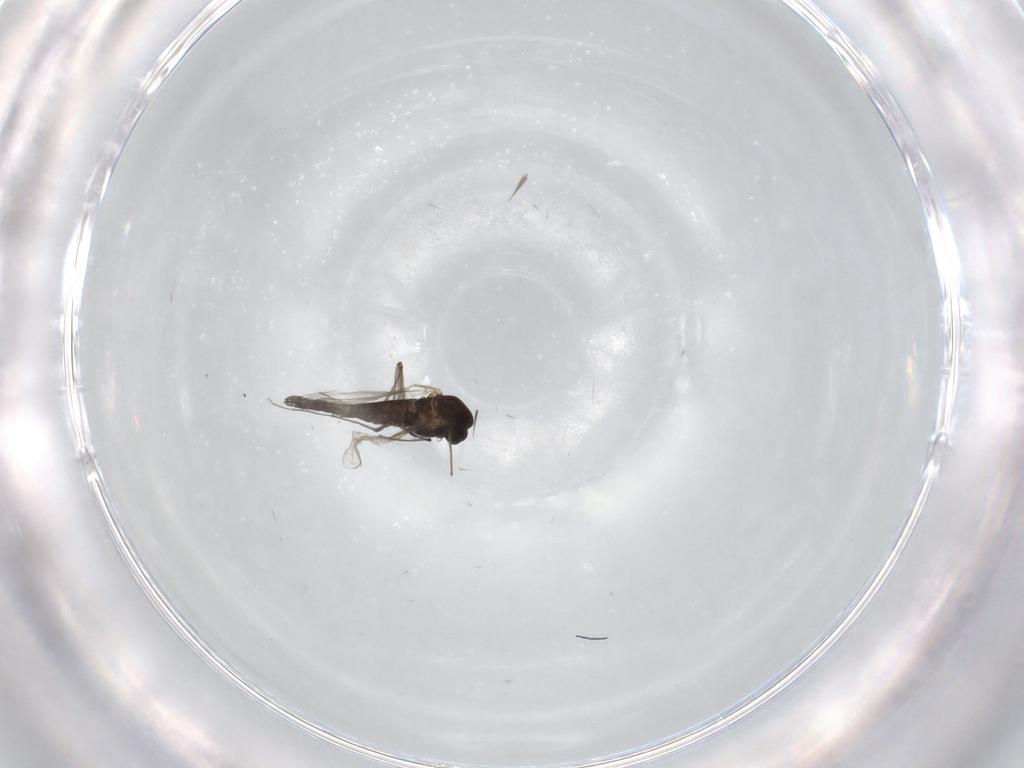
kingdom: Animalia
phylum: Arthropoda
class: Insecta
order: Diptera
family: Chironomidae
